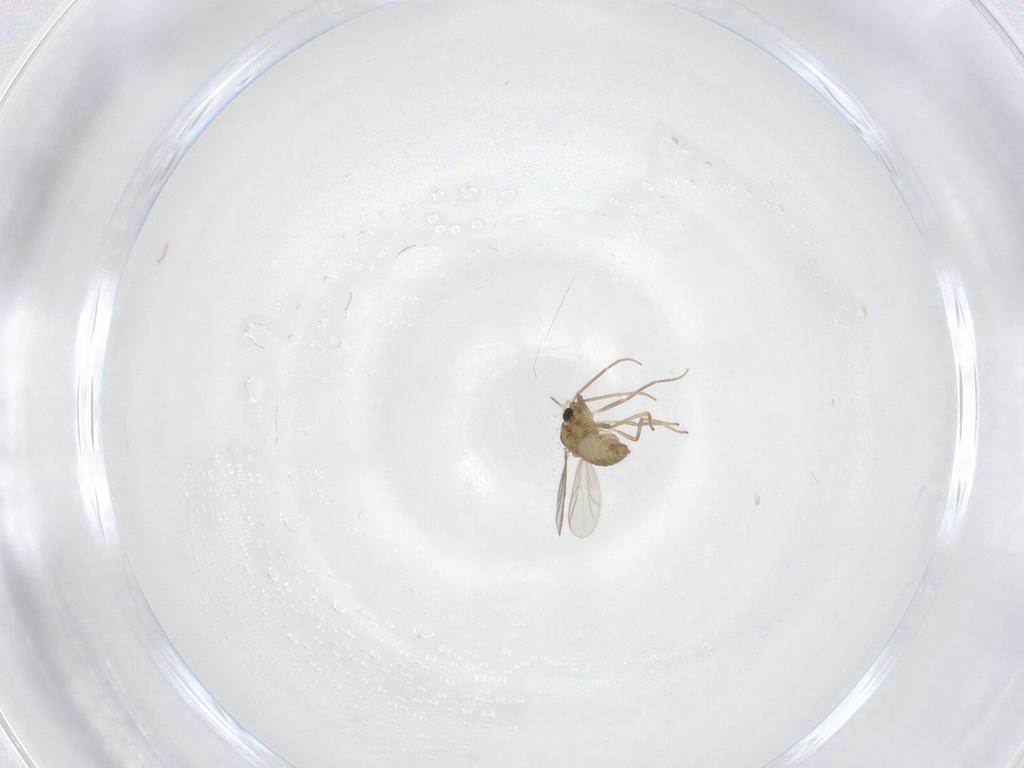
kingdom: Animalia
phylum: Arthropoda
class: Insecta
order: Diptera
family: Chironomidae
